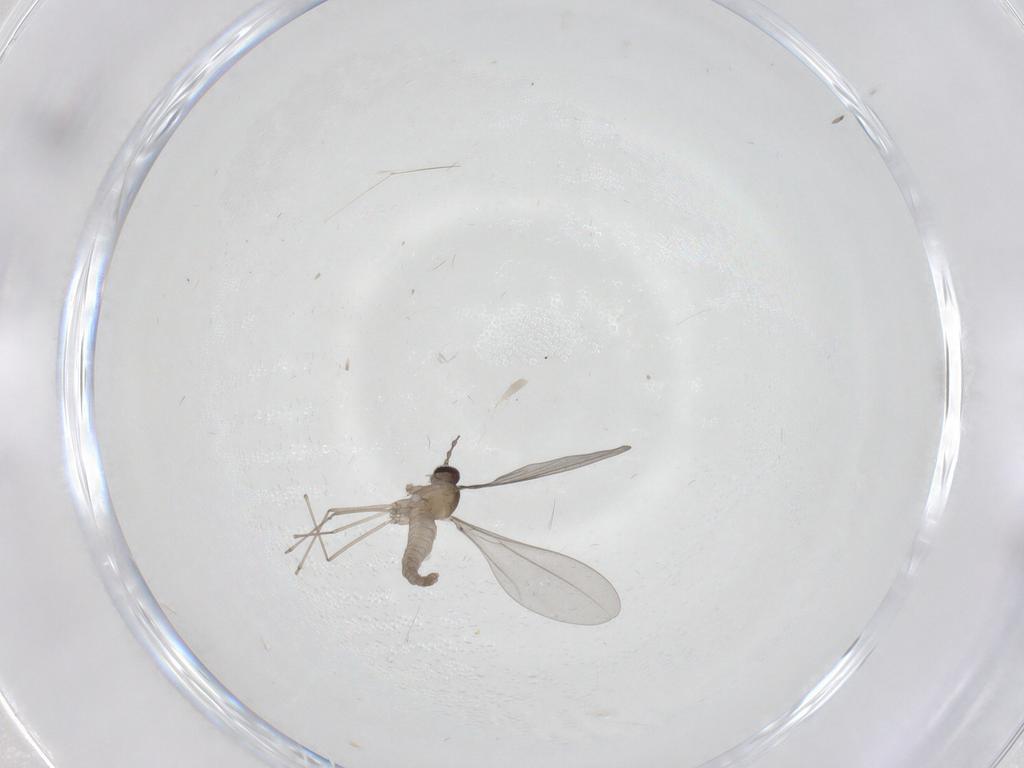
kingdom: Animalia
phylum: Arthropoda
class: Insecta
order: Diptera
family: Cecidomyiidae
